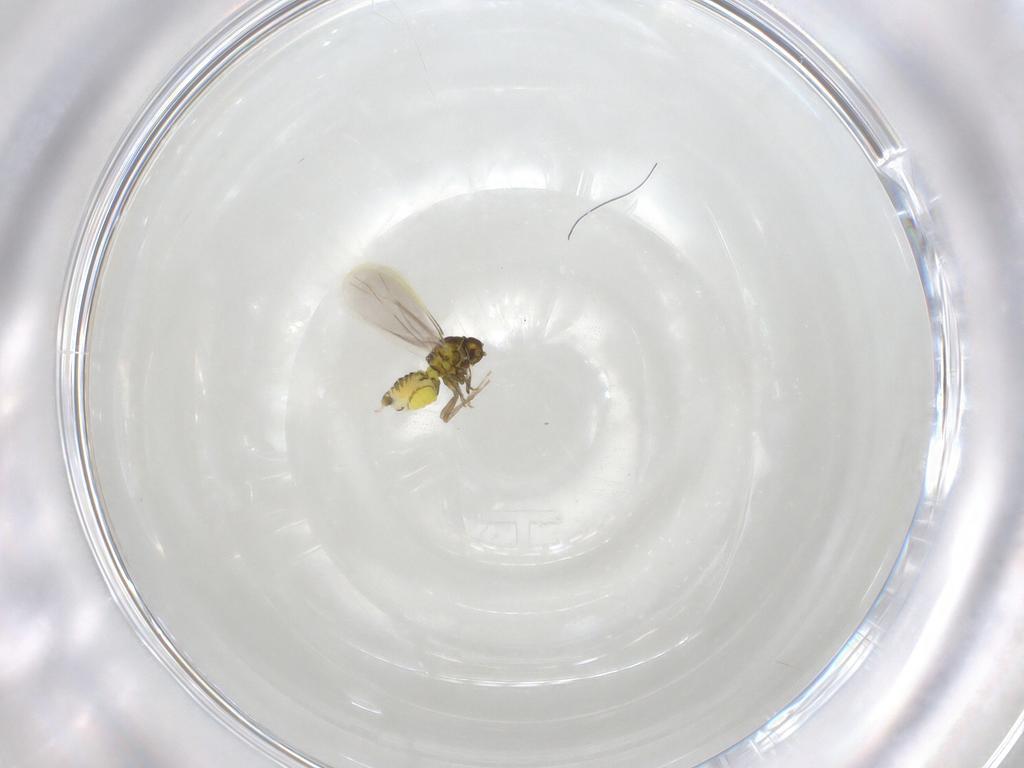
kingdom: Animalia
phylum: Arthropoda
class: Insecta
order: Hemiptera
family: Aleyrodidae
